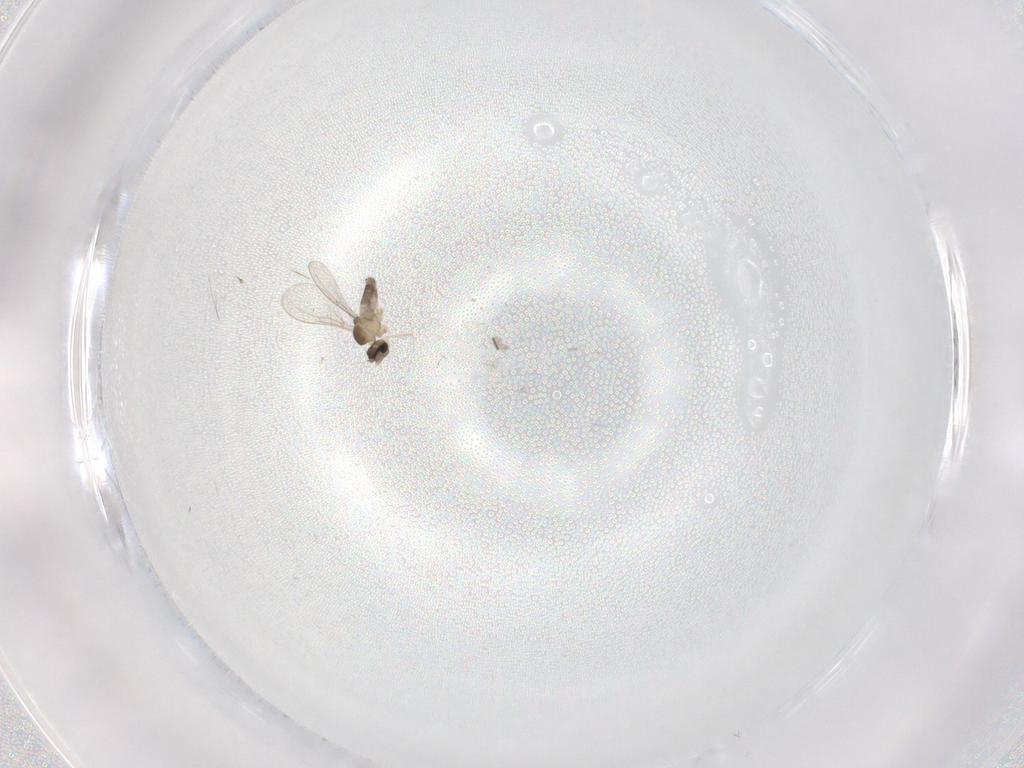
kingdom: Animalia
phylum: Arthropoda
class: Insecta
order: Diptera
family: Cecidomyiidae
